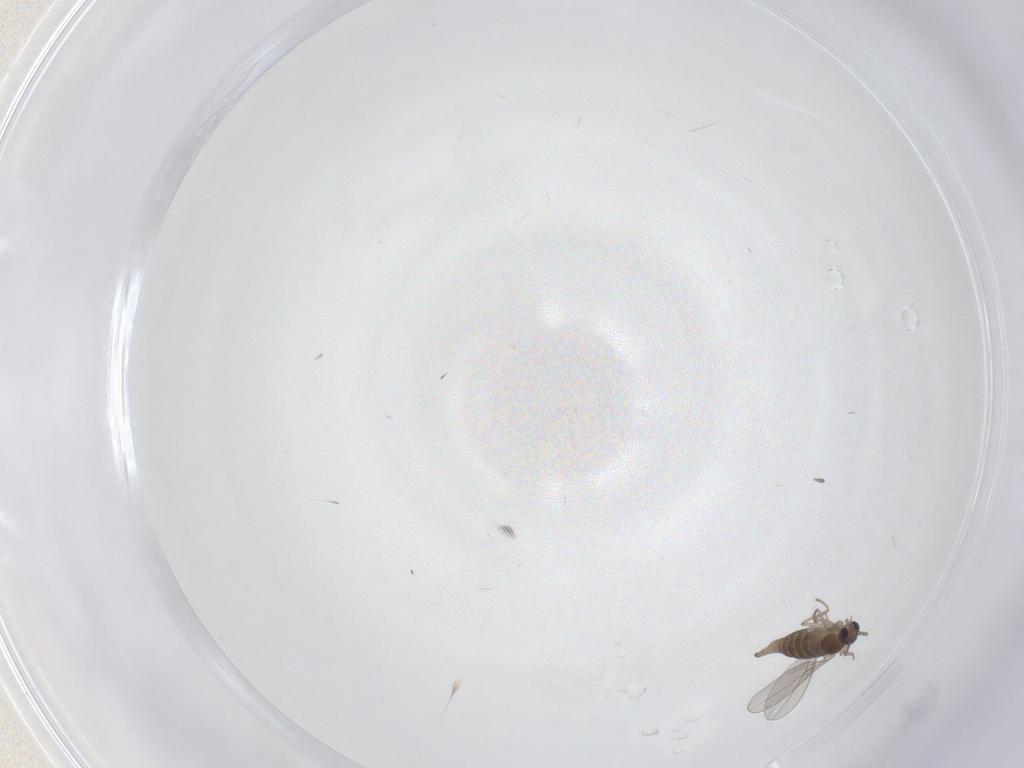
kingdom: Animalia
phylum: Arthropoda
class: Insecta
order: Diptera
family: Cecidomyiidae
